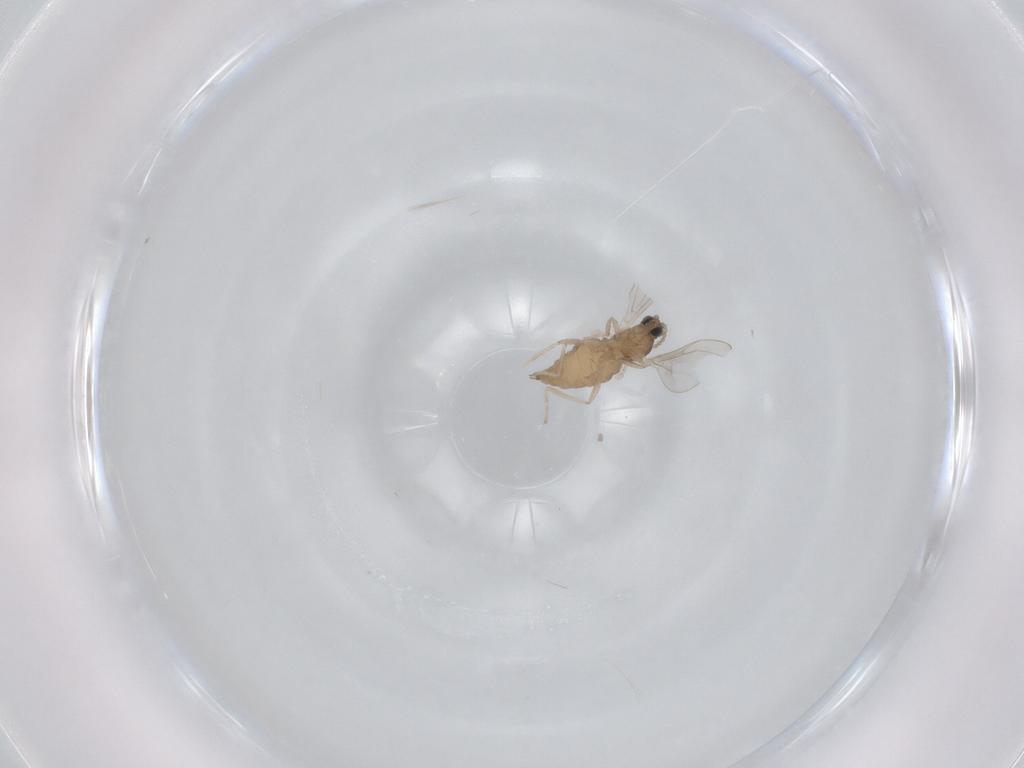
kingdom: Animalia
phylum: Arthropoda
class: Insecta
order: Diptera
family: Cecidomyiidae
